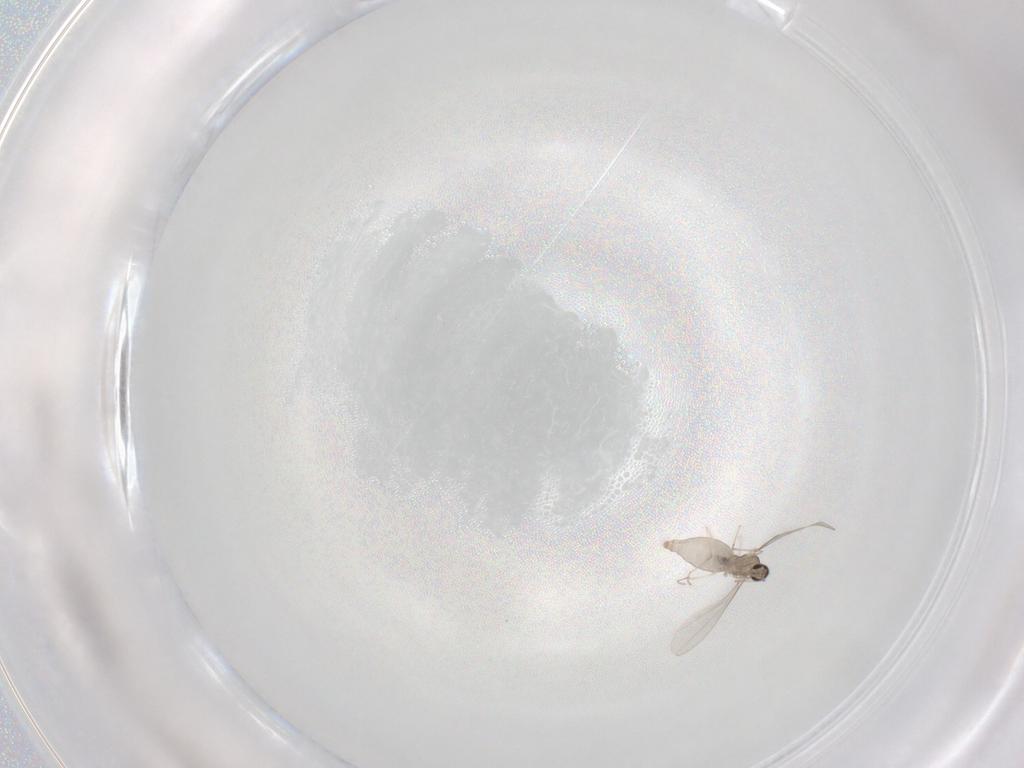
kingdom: Animalia
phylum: Arthropoda
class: Insecta
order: Diptera
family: Cecidomyiidae
